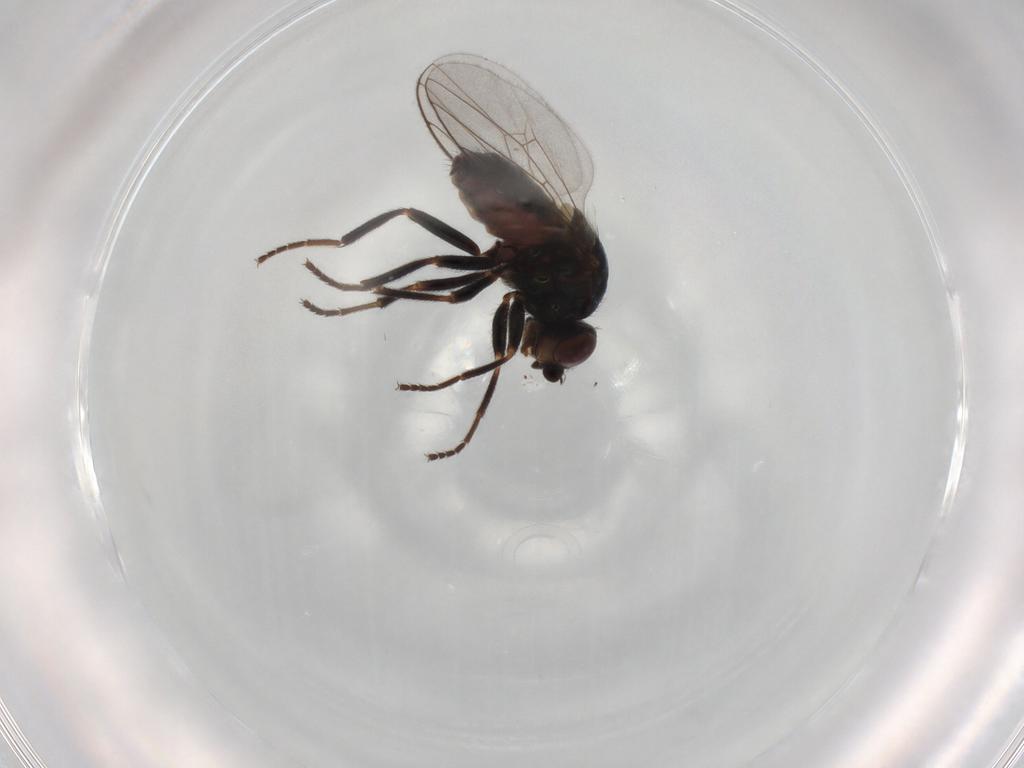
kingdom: Animalia
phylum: Arthropoda
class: Insecta
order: Diptera
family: Chloropidae
